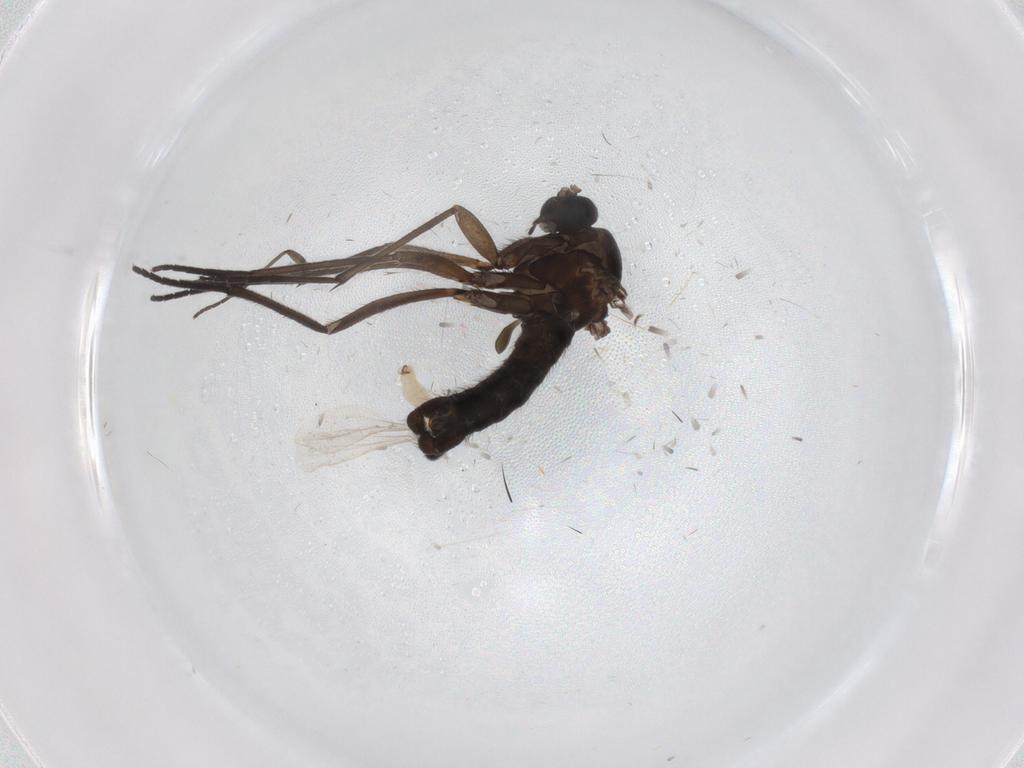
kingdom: Animalia
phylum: Arthropoda
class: Insecta
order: Diptera
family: Sciaridae
